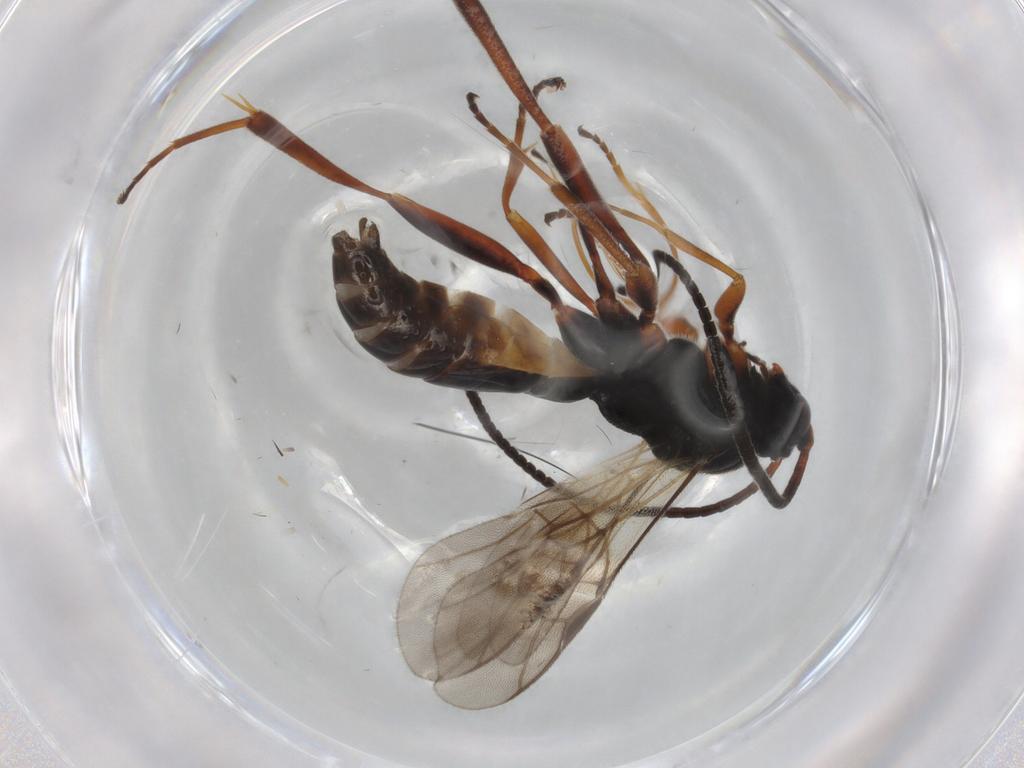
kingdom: Animalia
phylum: Arthropoda
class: Insecta
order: Hymenoptera
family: Braconidae
